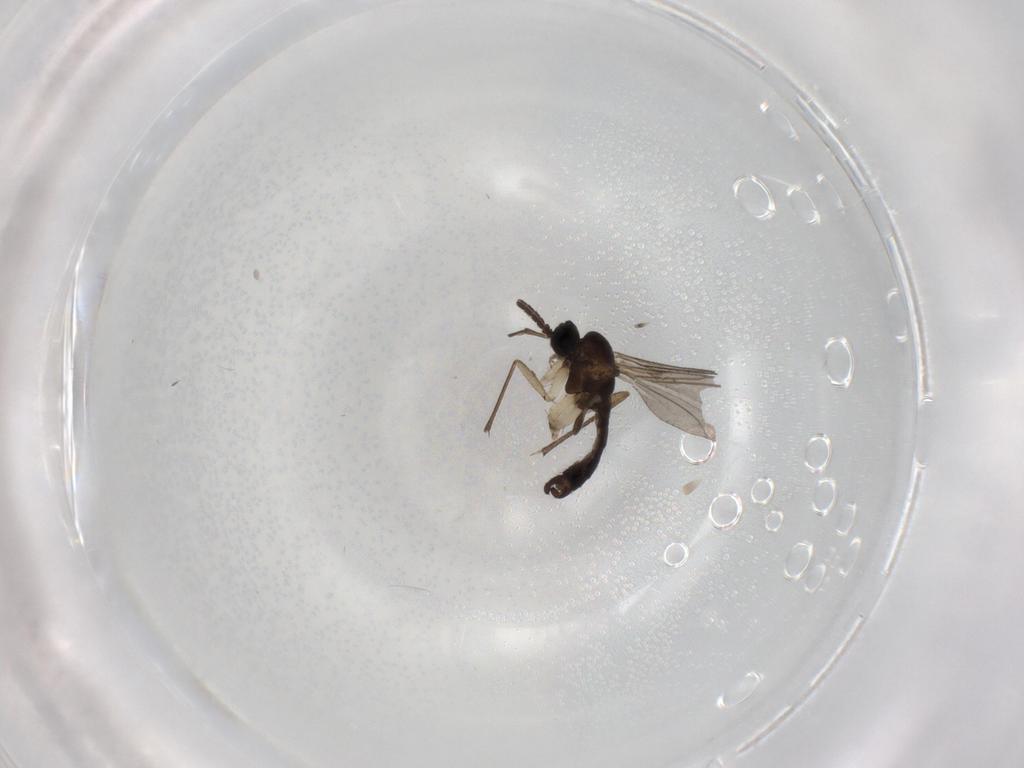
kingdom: Animalia
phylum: Arthropoda
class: Insecta
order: Diptera
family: Sciaridae
